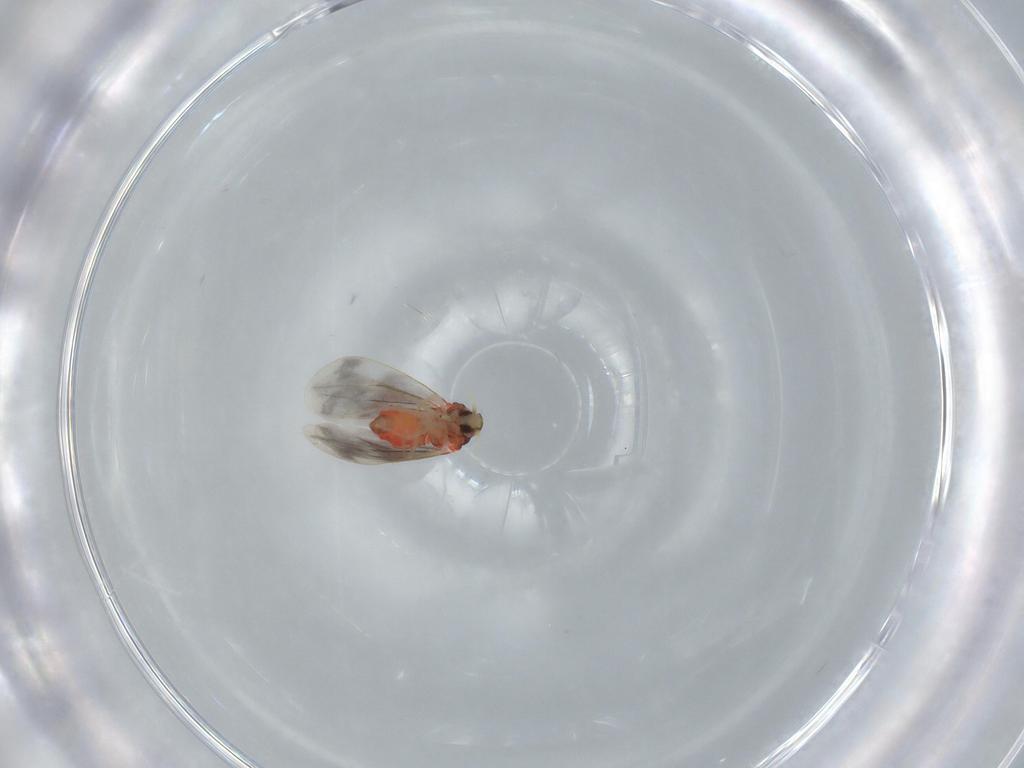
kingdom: Animalia
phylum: Arthropoda
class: Insecta
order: Hemiptera
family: Aleyrodidae
